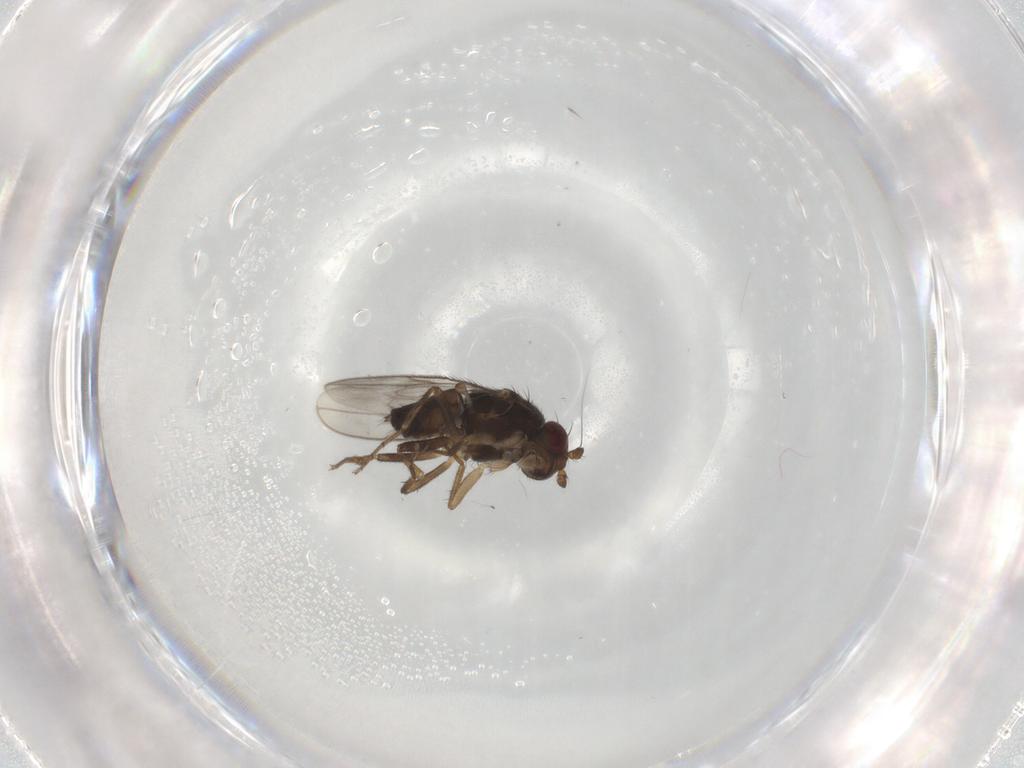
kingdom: Animalia
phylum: Arthropoda
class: Insecta
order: Diptera
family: Sphaeroceridae
